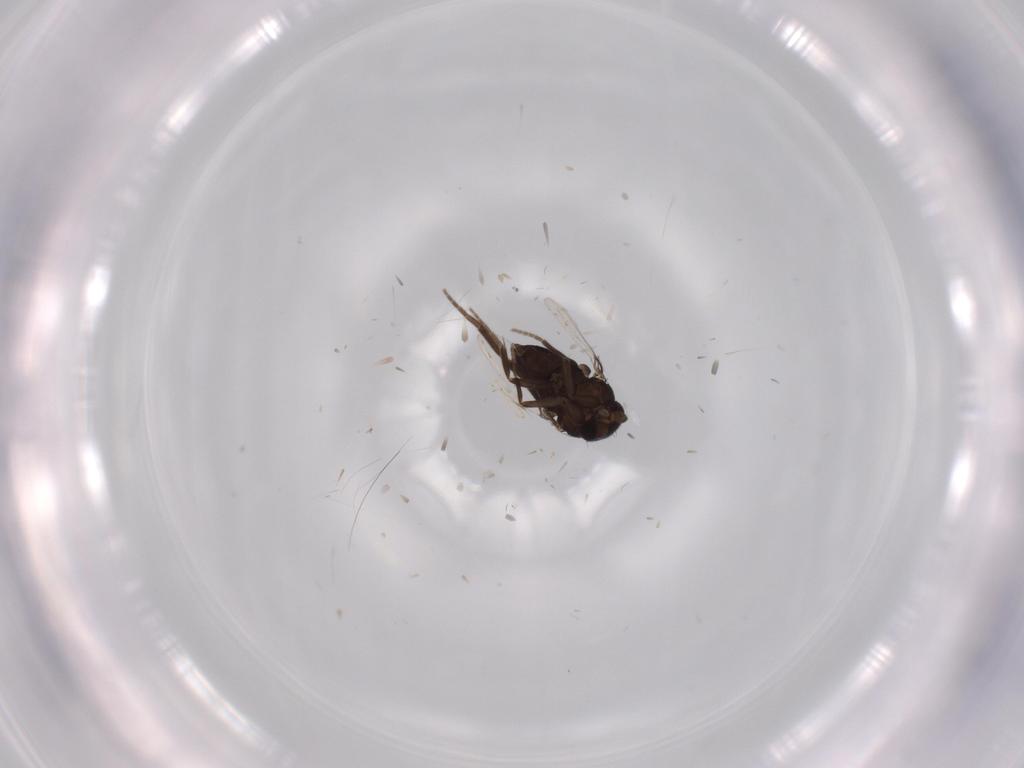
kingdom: Animalia
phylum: Arthropoda
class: Insecta
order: Diptera
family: Phoridae
